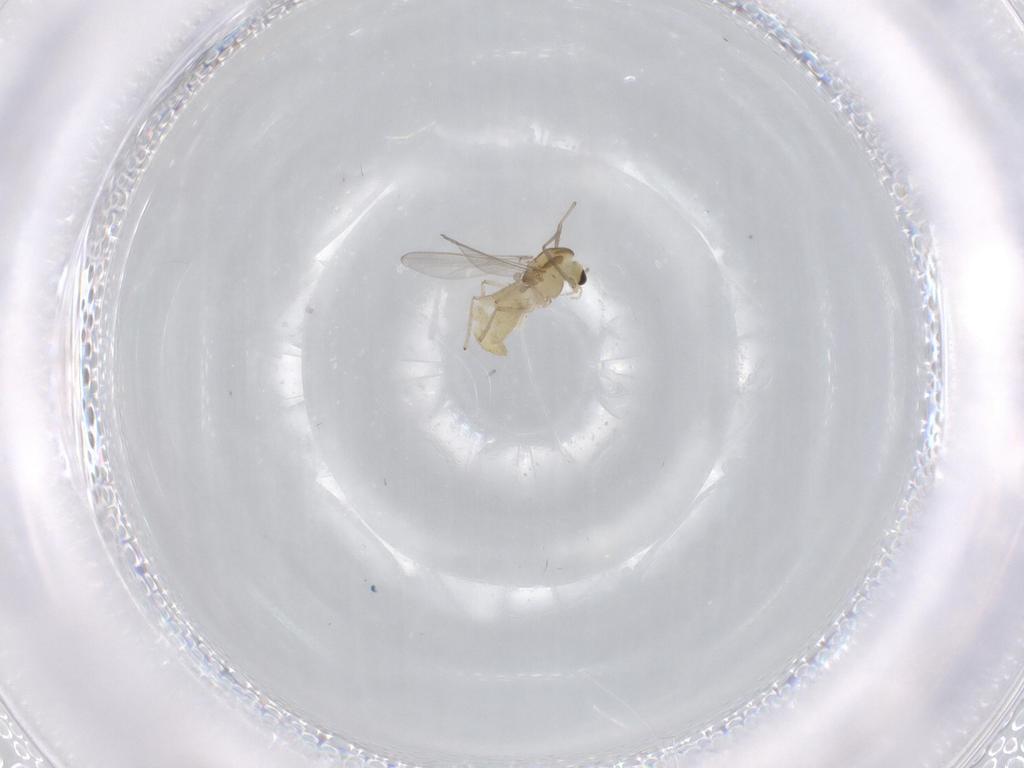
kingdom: Animalia
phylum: Arthropoda
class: Insecta
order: Diptera
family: Chironomidae
